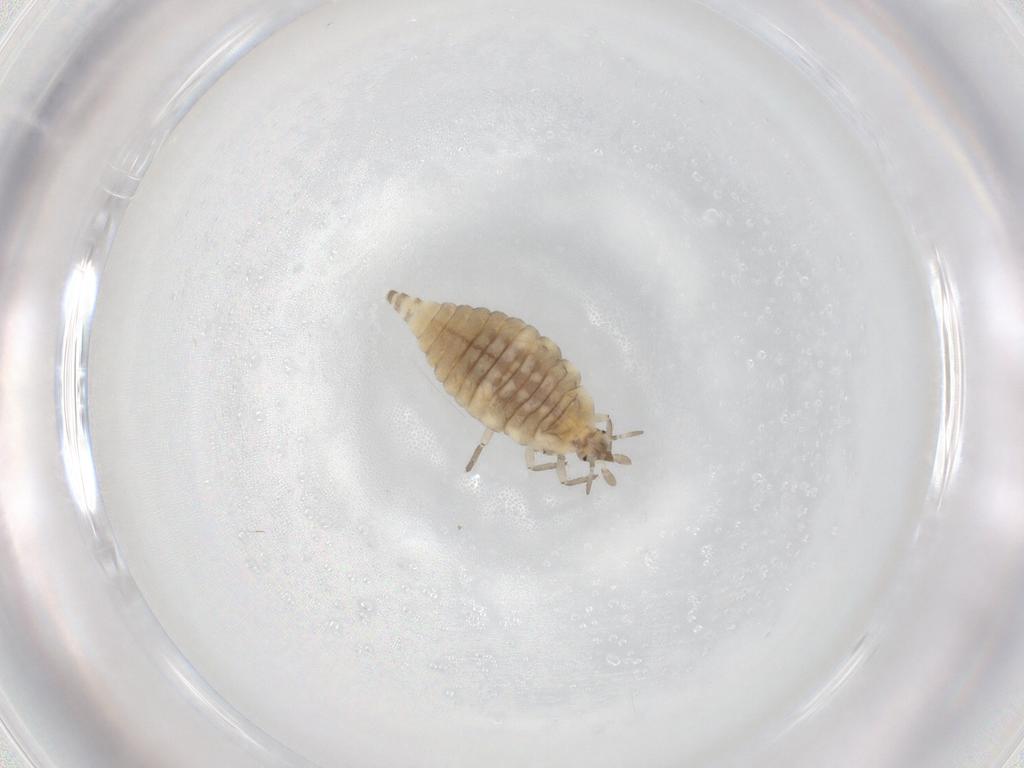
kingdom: Animalia
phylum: Arthropoda
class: Insecta
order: Neuroptera
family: Coniopterygidae
